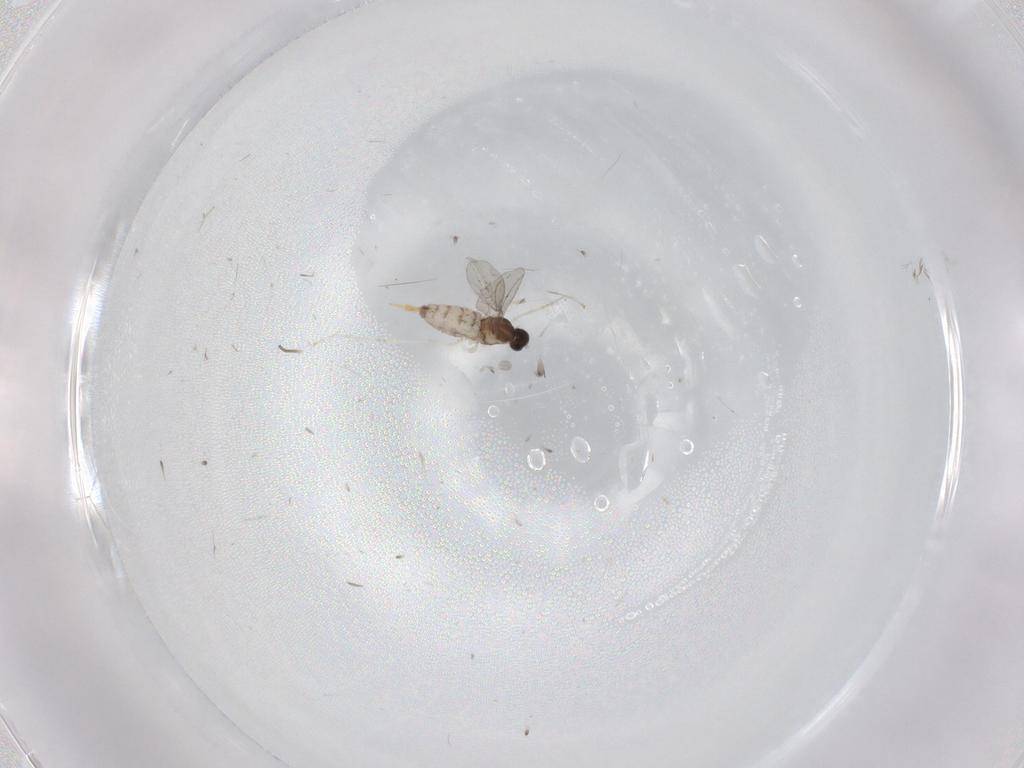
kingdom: Animalia
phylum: Arthropoda
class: Insecta
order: Diptera
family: Cecidomyiidae
